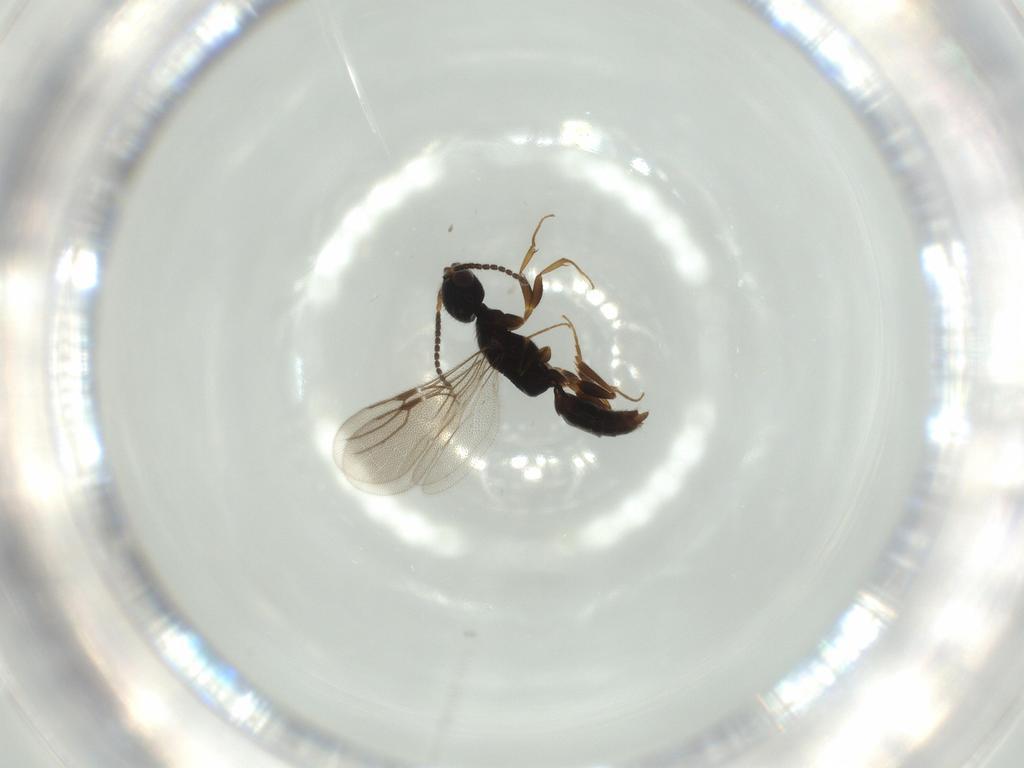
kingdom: Animalia
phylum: Arthropoda
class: Insecta
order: Hymenoptera
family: Bethylidae
